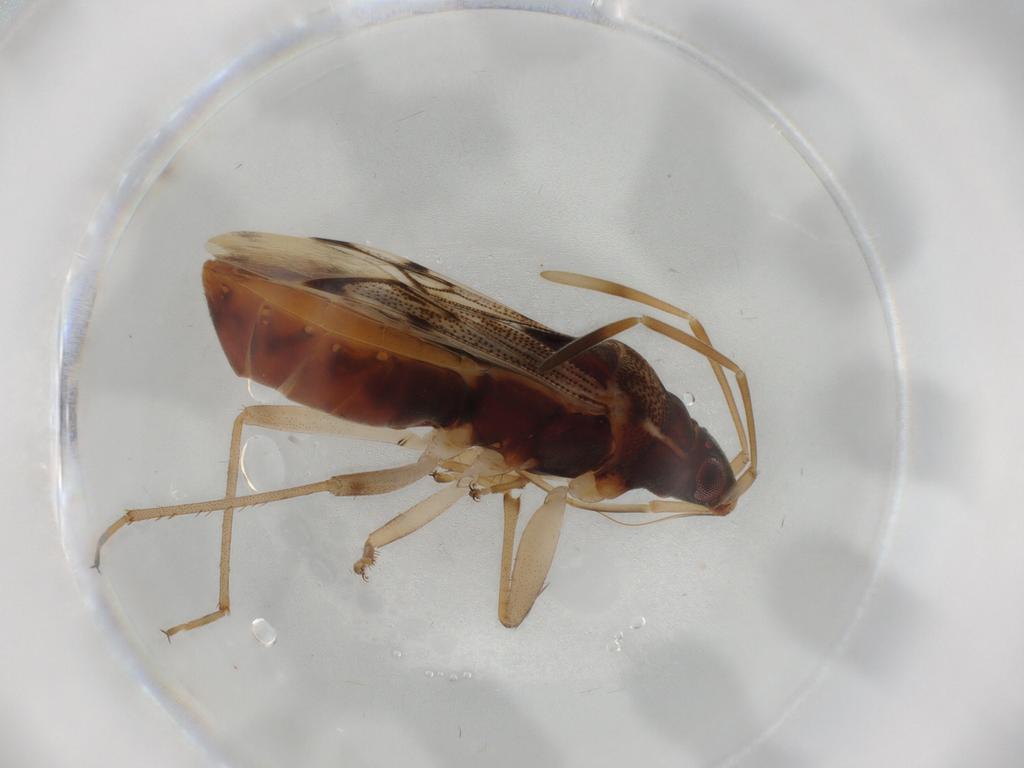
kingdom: Animalia
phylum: Arthropoda
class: Insecta
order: Hemiptera
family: Rhyparochromidae
